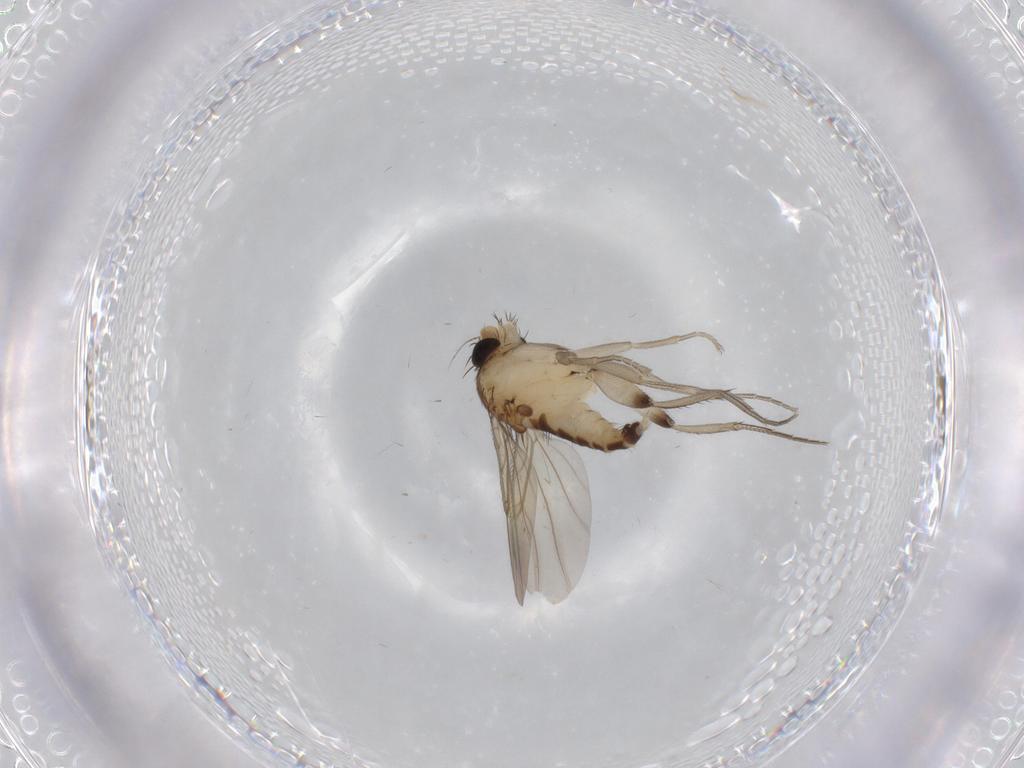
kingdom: Animalia
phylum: Arthropoda
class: Insecta
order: Diptera
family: Phoridae
